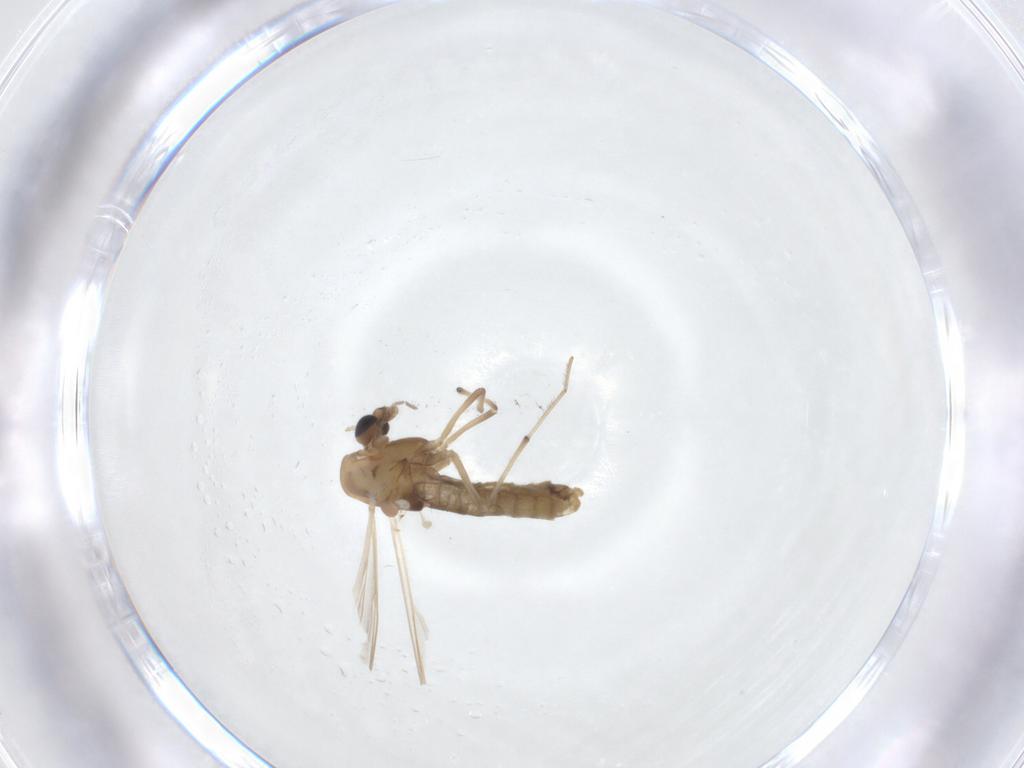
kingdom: Animalia
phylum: Arthropoda
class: Insecta
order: Diptera
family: Chironomidae
